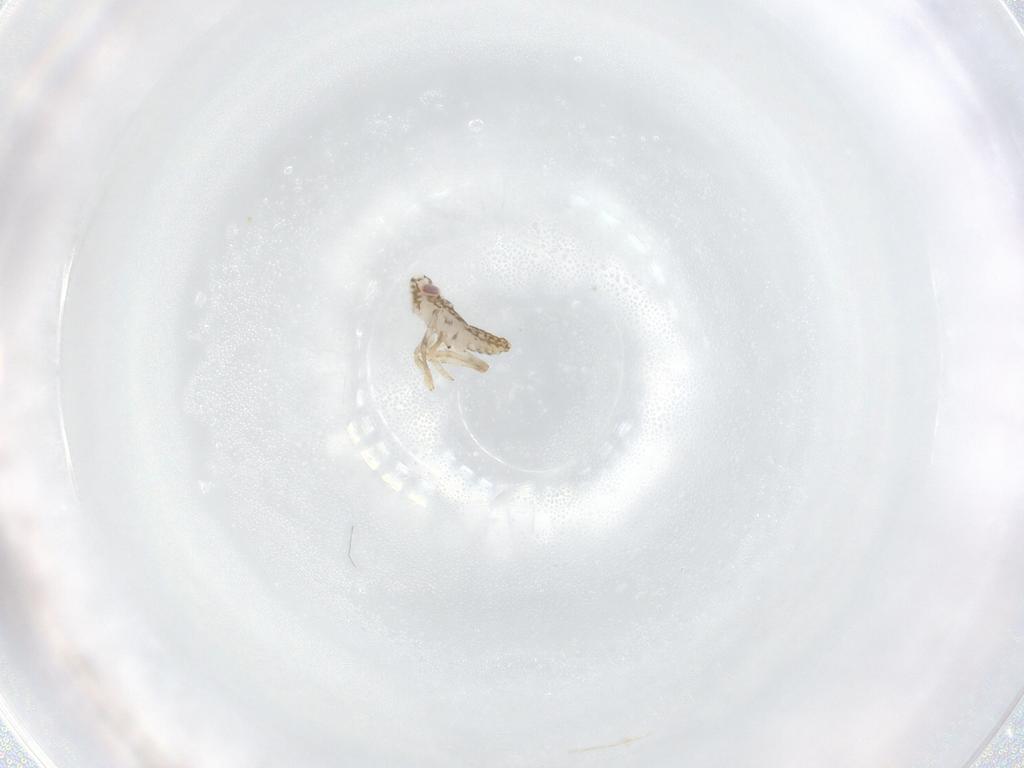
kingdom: Animalia
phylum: Arthropoda
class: Insecta
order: Hemiptera
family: Delphacidae
